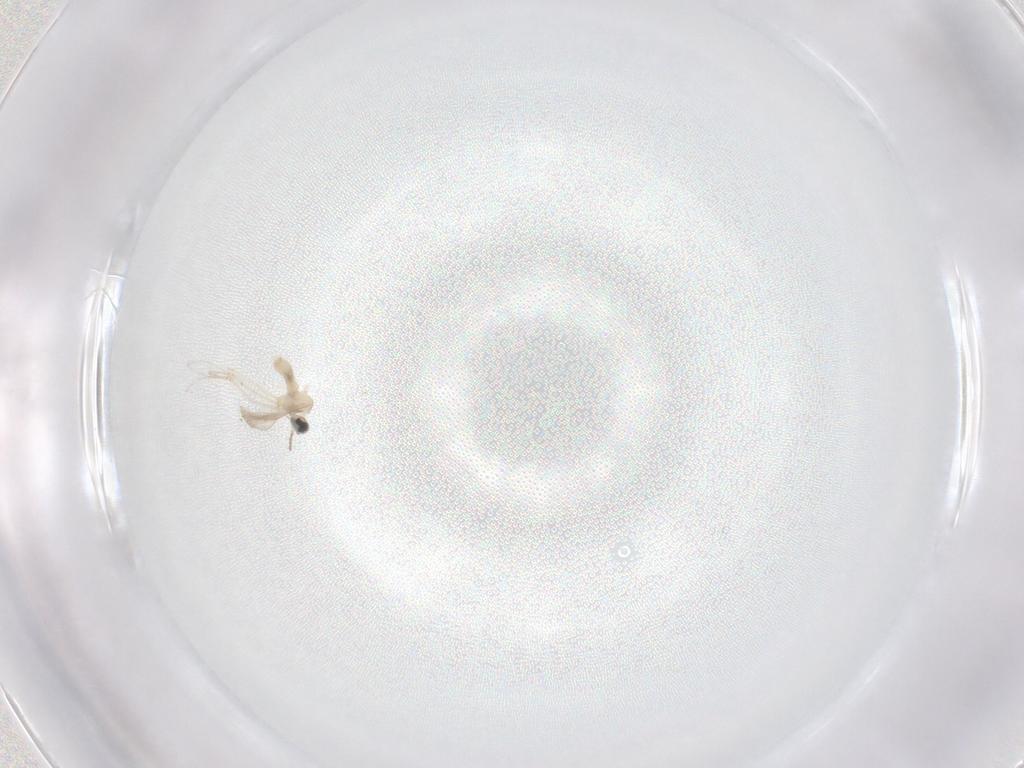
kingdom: Animalia
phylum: Arthropoda
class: Insecta
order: Diptera
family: Cecidomyiidae
